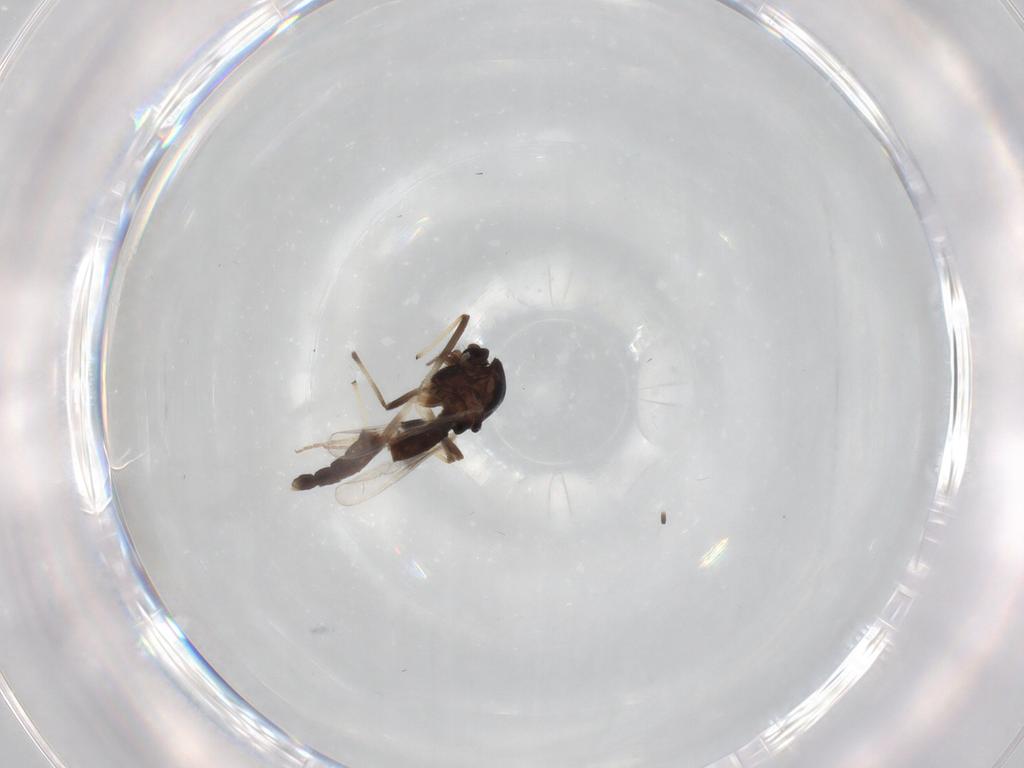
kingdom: Animalia
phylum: Arthropoda
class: Insecta
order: Diptera
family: Chironomidae
